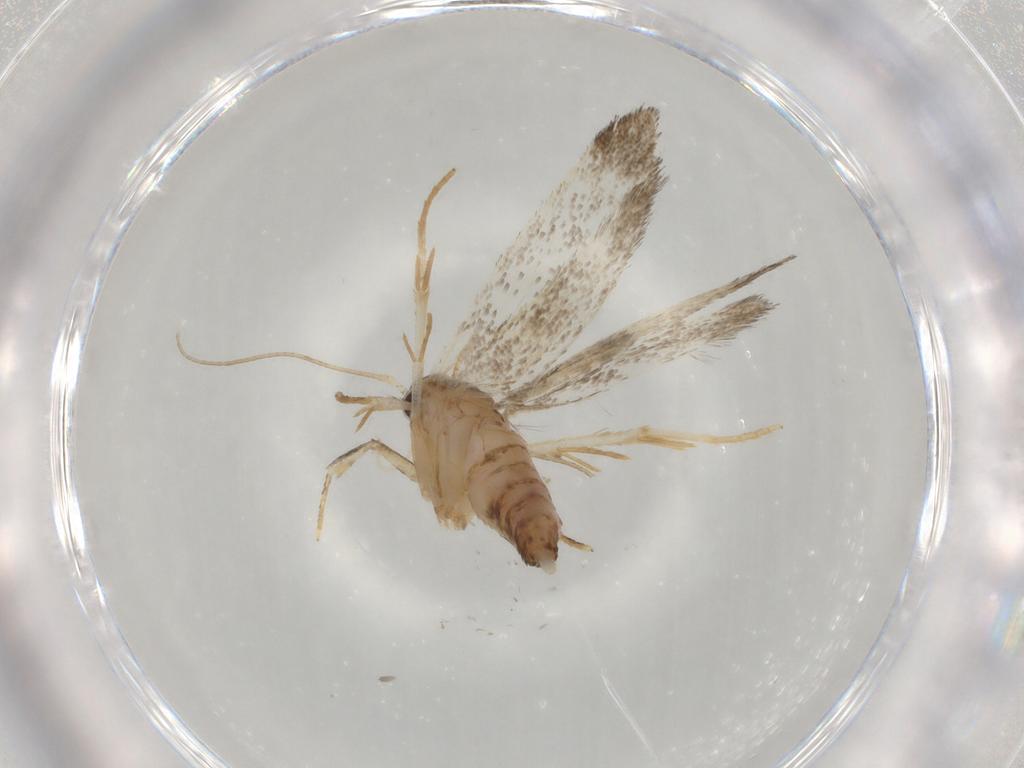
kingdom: Animalia
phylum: Arthropoda
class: Insecta
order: Lepidoptera
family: Cosmopterigidae
